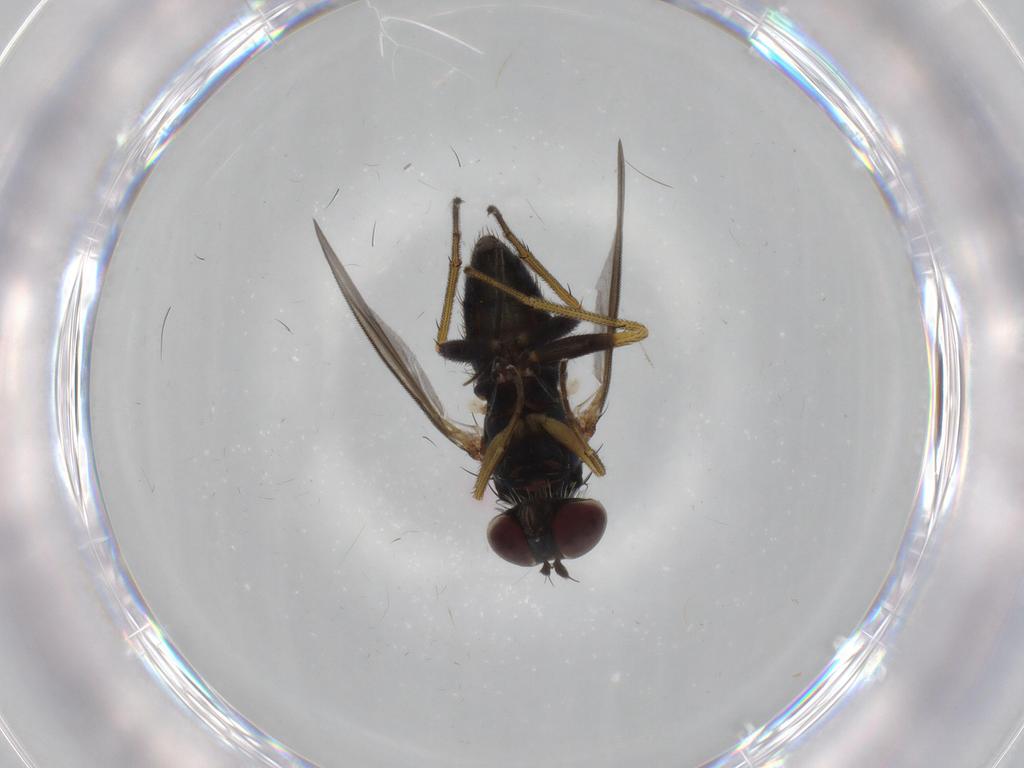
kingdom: Animalia
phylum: Arthropoda
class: Insecta
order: Diptera
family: Dolichopodidae
